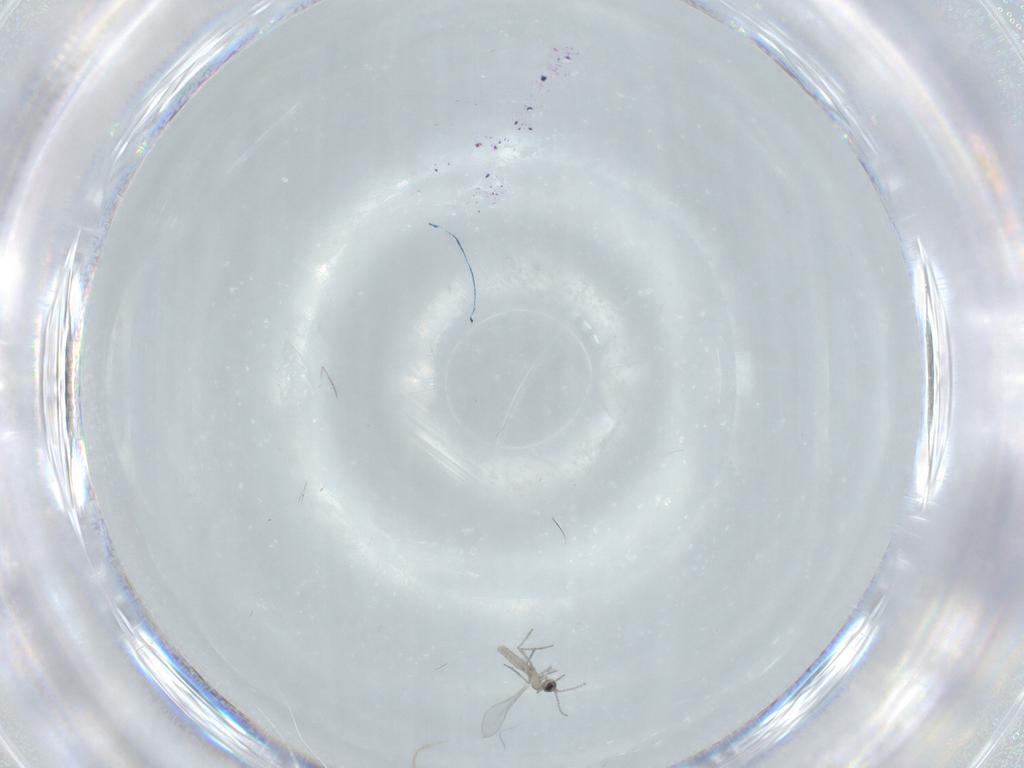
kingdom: Animalia
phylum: Arthropoda
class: Insecta
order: Diptera
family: Cecidomyiidae
